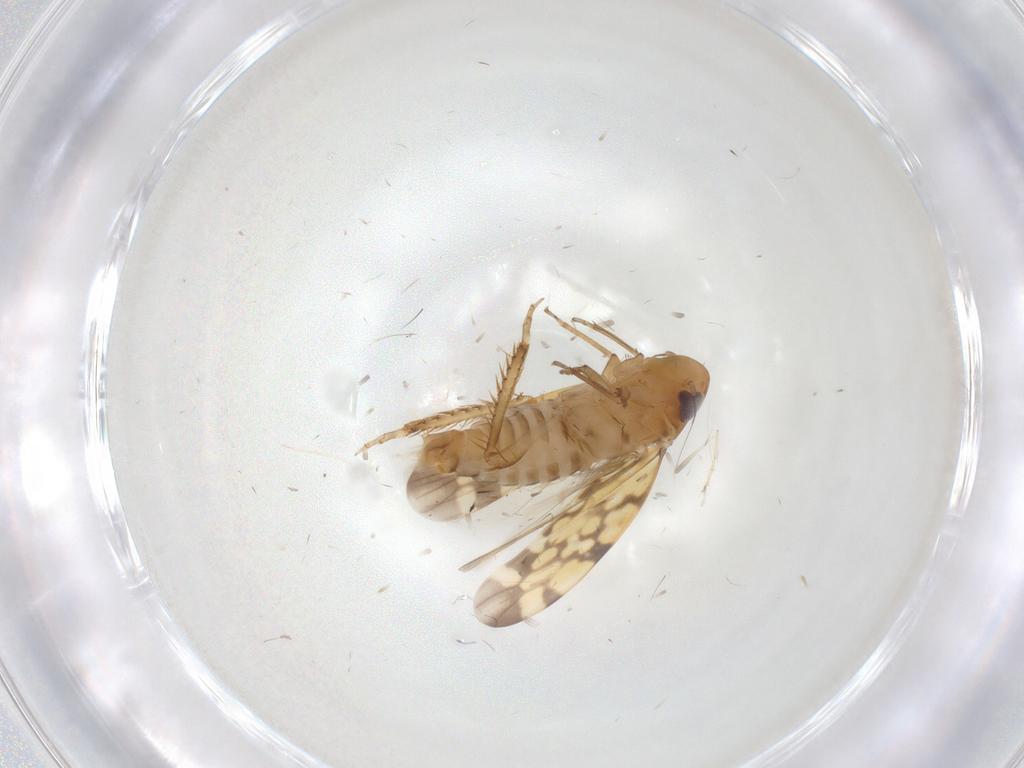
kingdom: Animalia
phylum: Arthropoda
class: Insecta
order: Hemiptera
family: Cicadellidae
